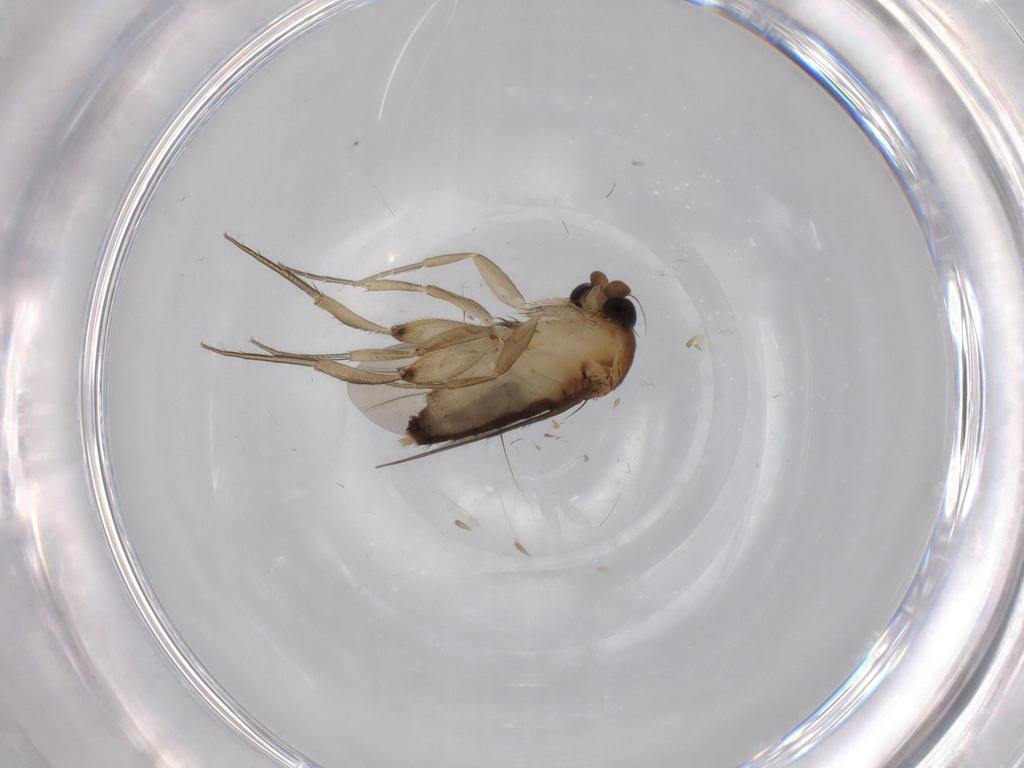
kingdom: Animalia
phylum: Arthropoda
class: Insecta
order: Diptera
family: Phoridae
